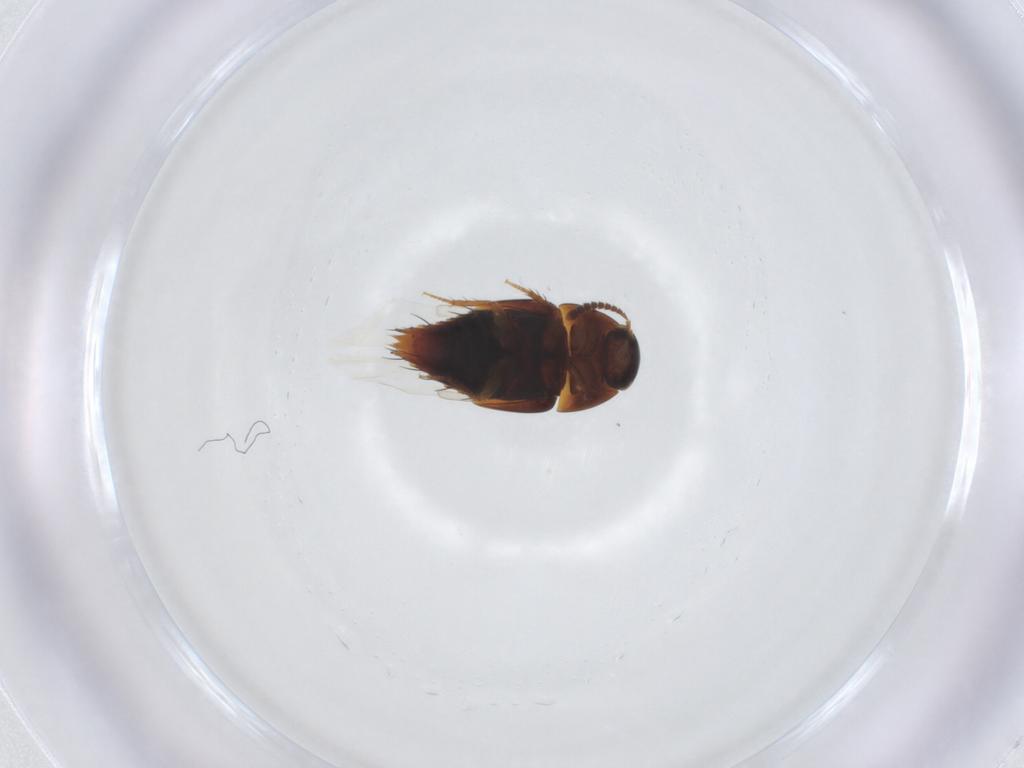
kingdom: Animalia
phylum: Arthropoda
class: Insecta
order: Coleoptera
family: Staphylinidae
